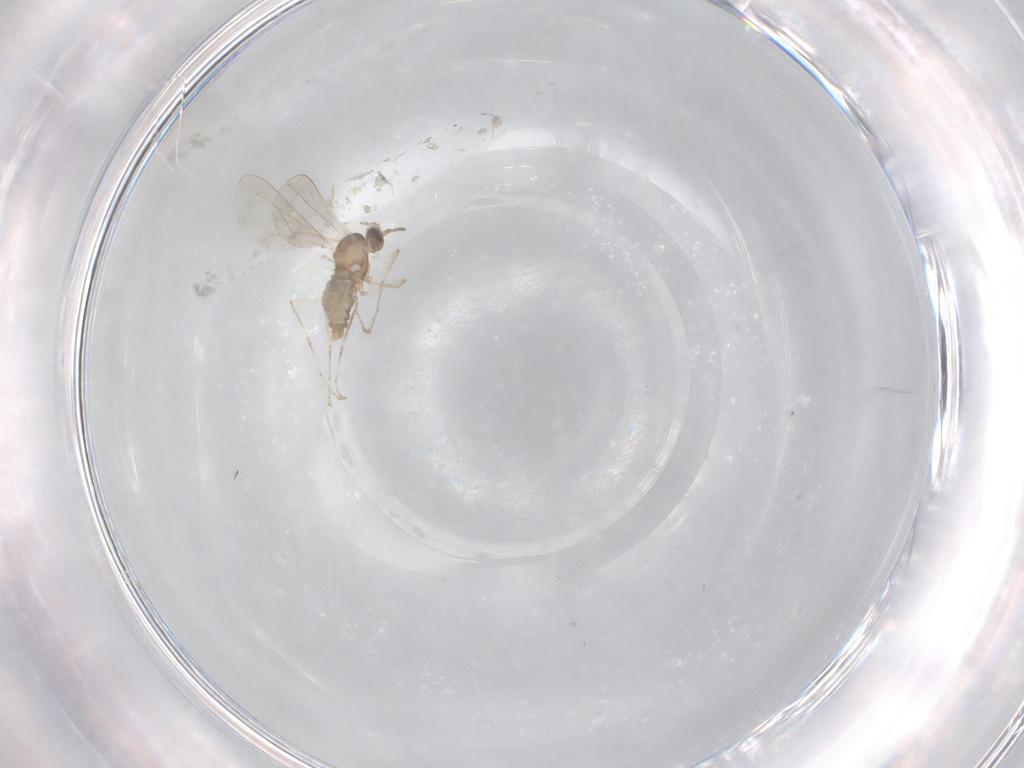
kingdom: Animalia
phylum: Arthropoda
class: Insecta
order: Diptera
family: Cecidomyiidae
